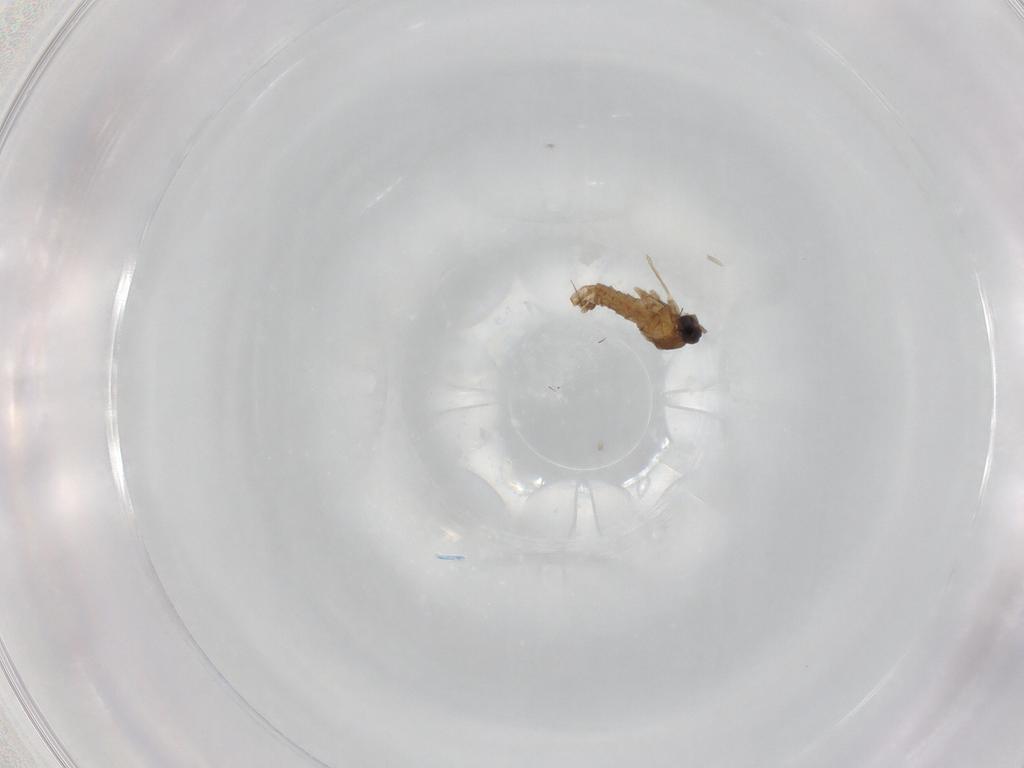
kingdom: Animalia
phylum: Arthropoda
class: Insecta
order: Diptera
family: Cecidomyiidae
